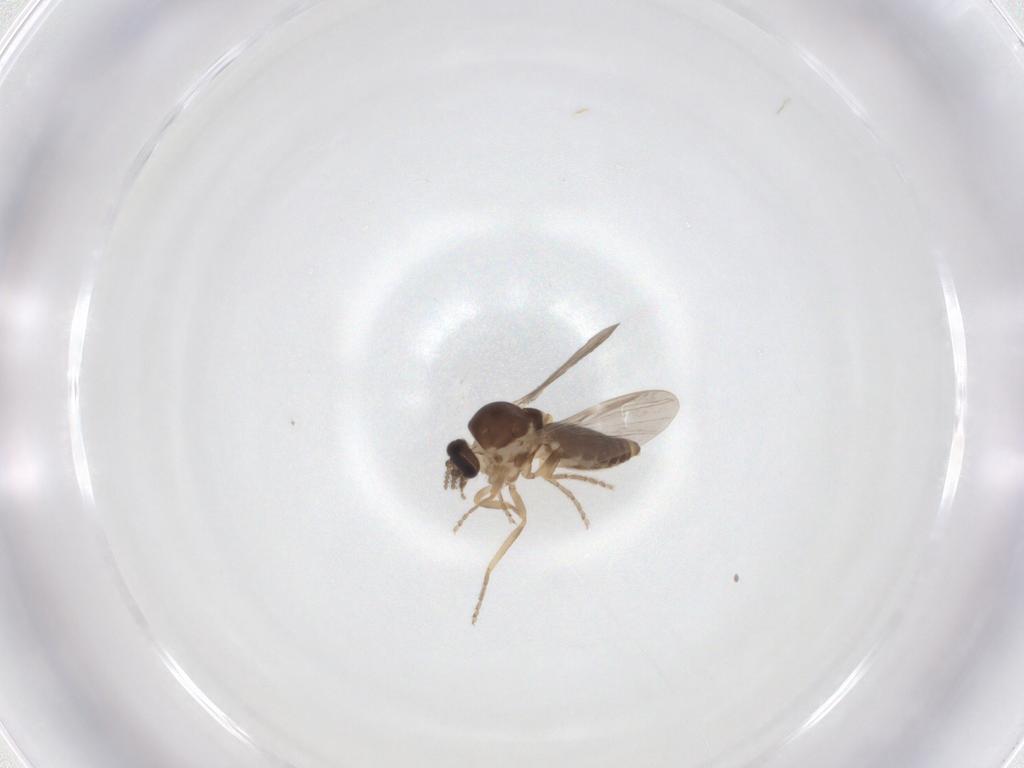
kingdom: Animalia
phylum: Arthropoda
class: Insecta
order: Diptera
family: Ceratopogonidae
